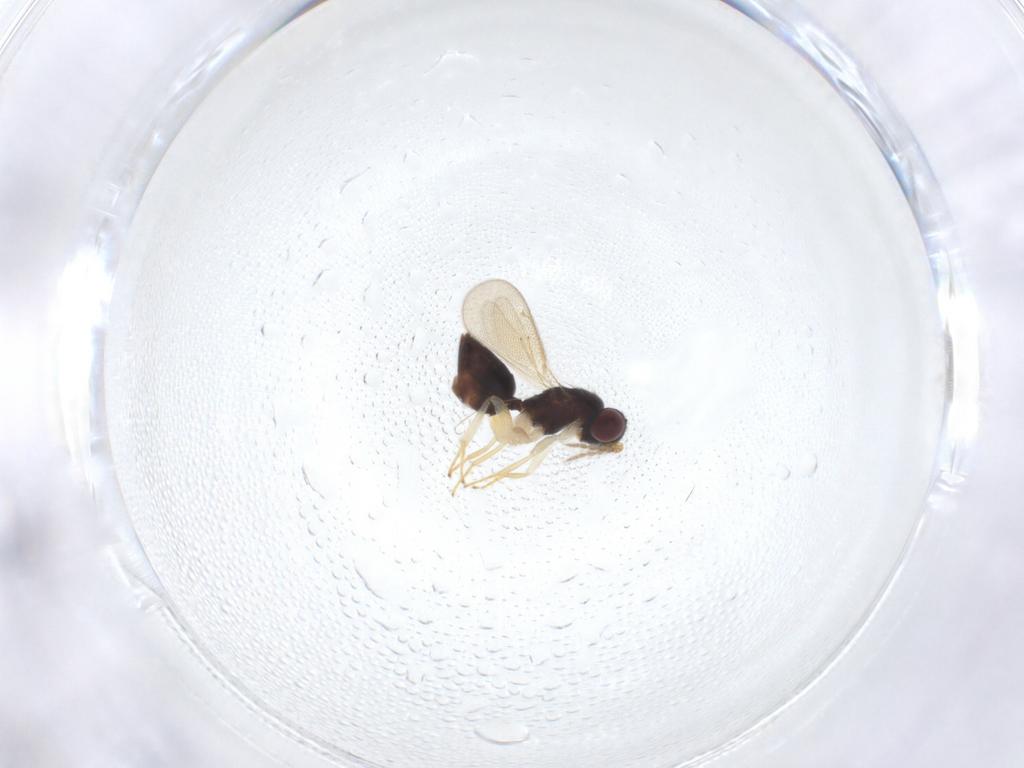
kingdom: Animalia
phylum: Arthropoda
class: Insecta
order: Hymenoptera
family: Eulophidae
